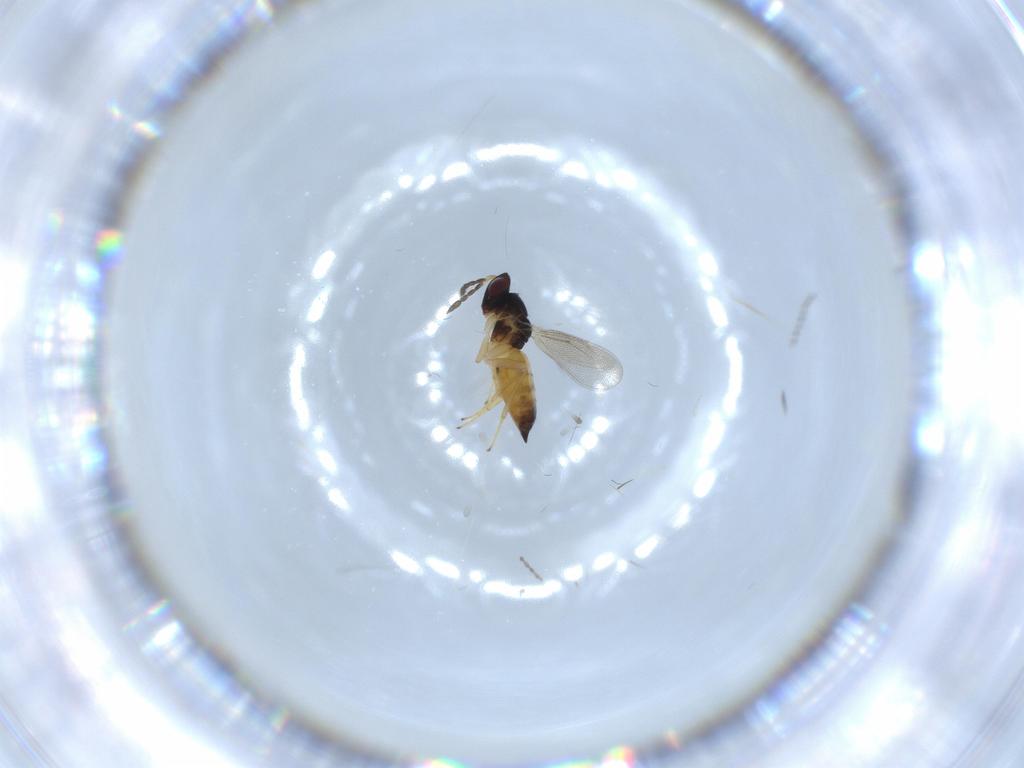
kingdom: Animalia
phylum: Arthropoda
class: Insecta
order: Hymenoptera
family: Eulophidae
